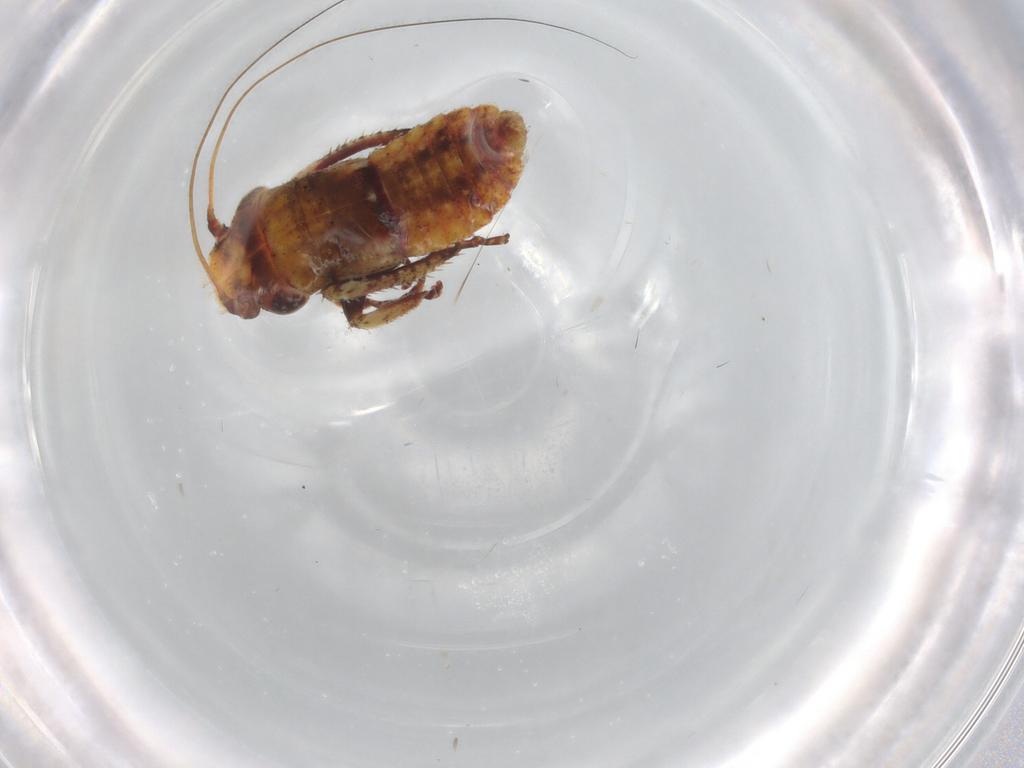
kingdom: Animalia
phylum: Arthropoda
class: Insecta
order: Hemiptera
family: Cicadellidae
